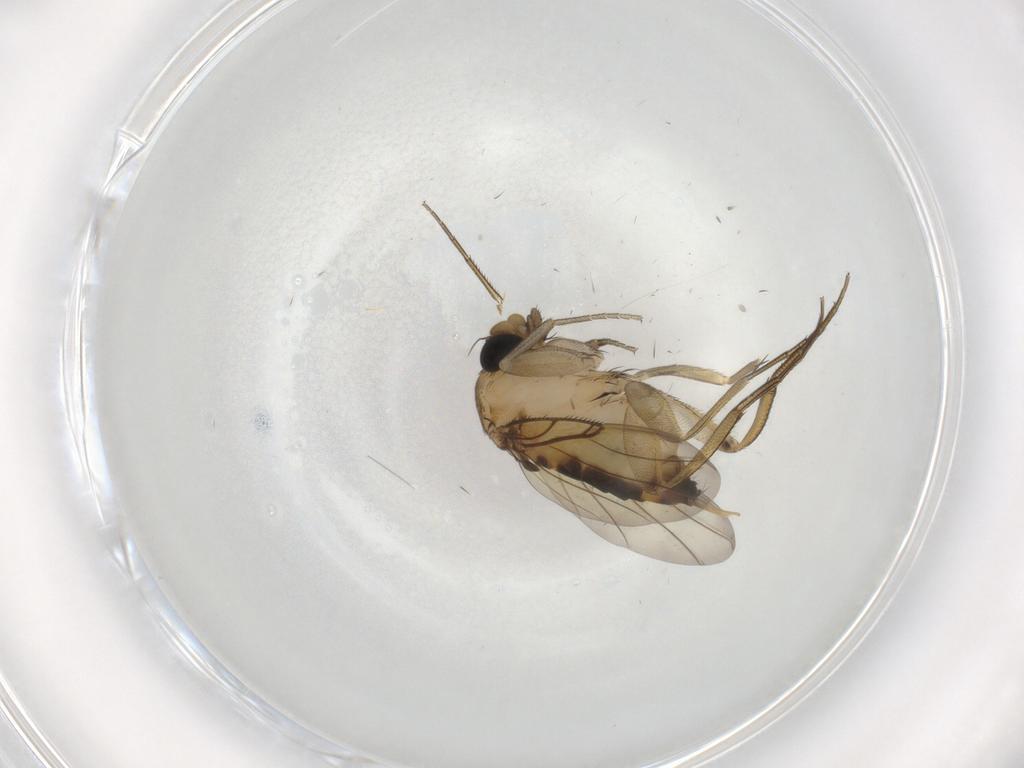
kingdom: Animalia
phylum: Arthropoda
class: Insecta
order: Diptera
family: Phoridae
